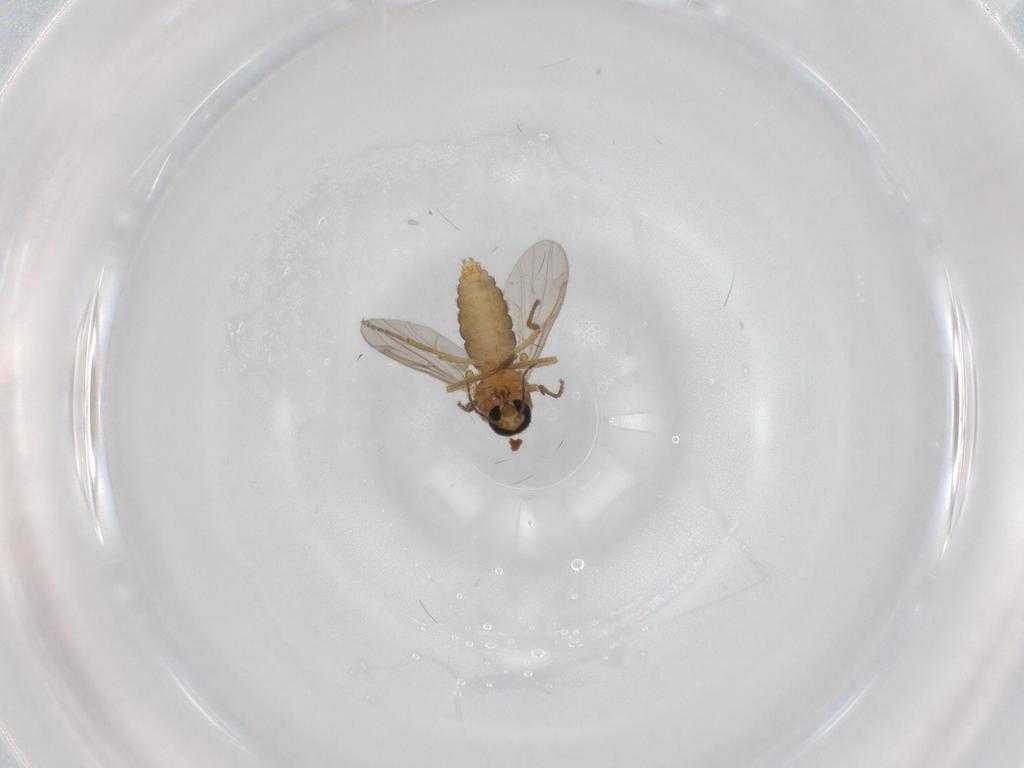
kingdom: Animalia
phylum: Arthropoda
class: Insecta
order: Diptera
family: Ceratopogonidae
